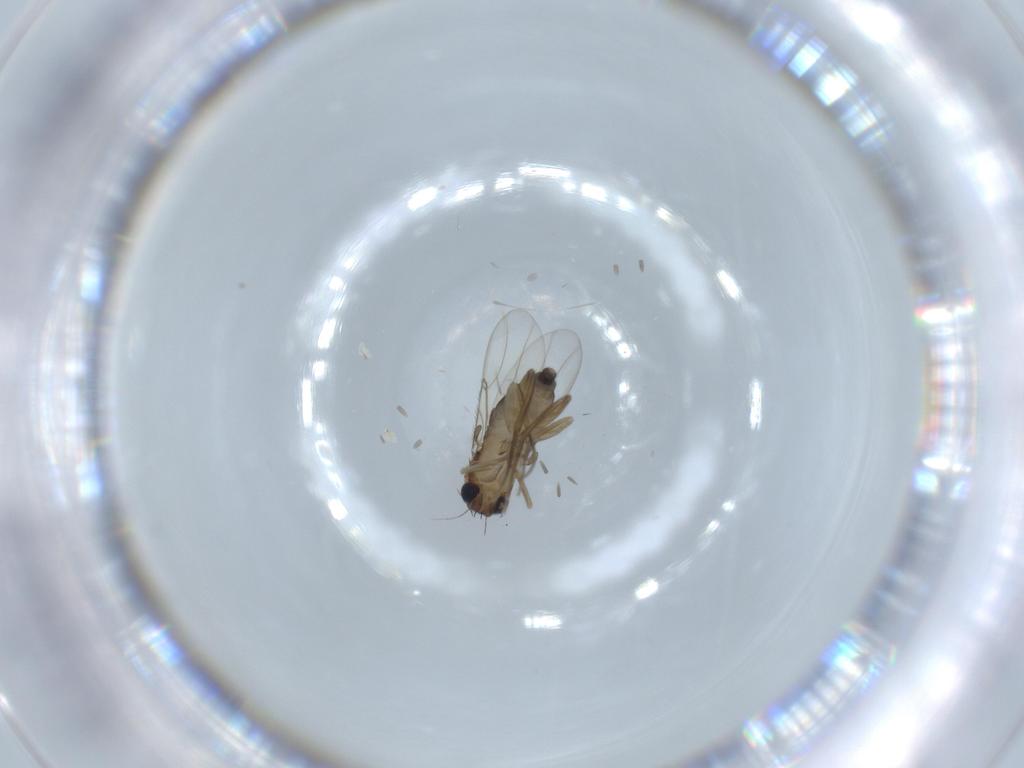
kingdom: Animalia
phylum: Arthropoda
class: Insecta
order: Diptera
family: Phoridae
